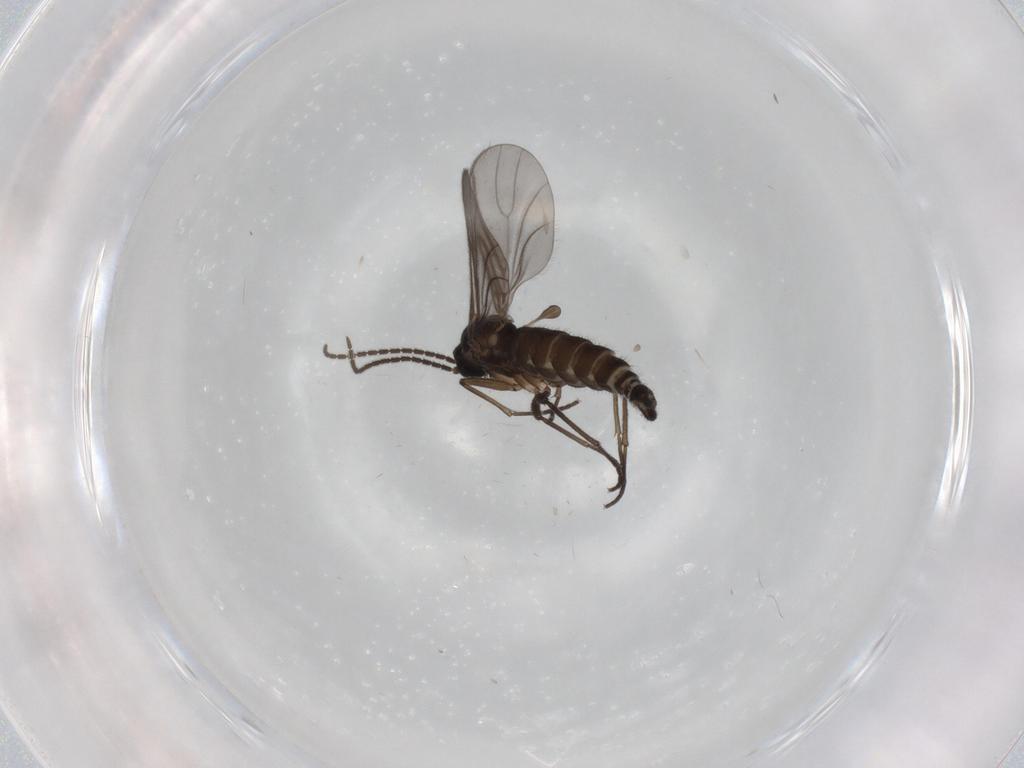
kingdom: Animalia
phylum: Arthropoda
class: Insecta
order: Diptera
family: Sciaridae
